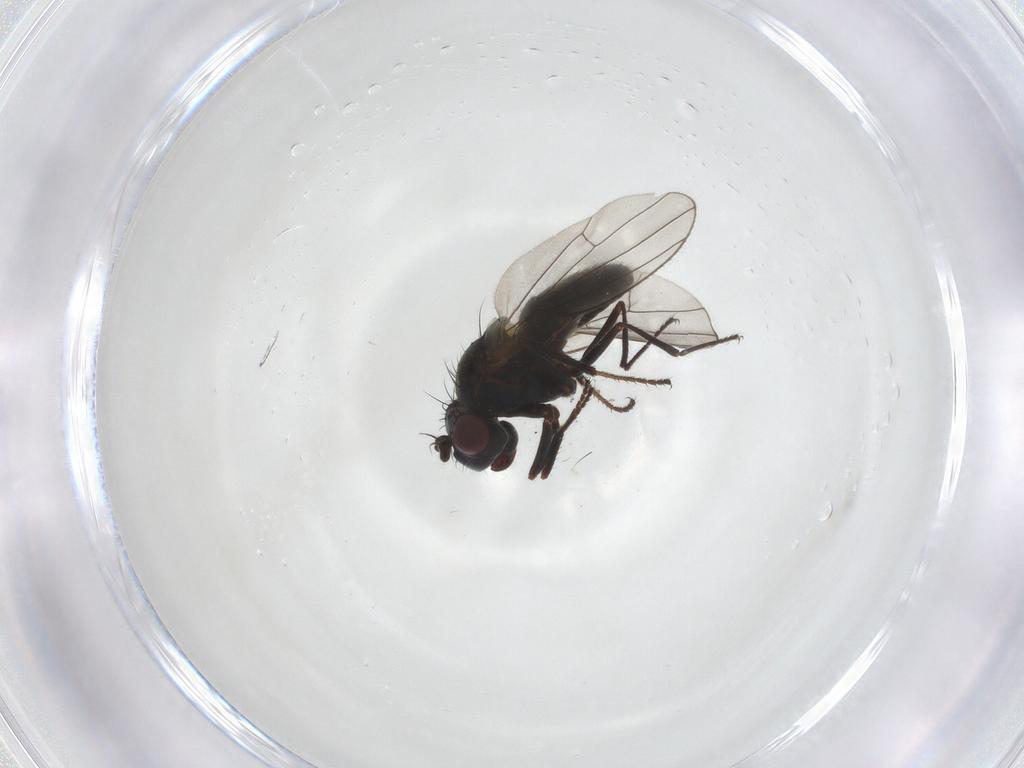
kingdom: Animalia
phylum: Arthropoda
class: Insecta
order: Diptera
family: Ephydridae
